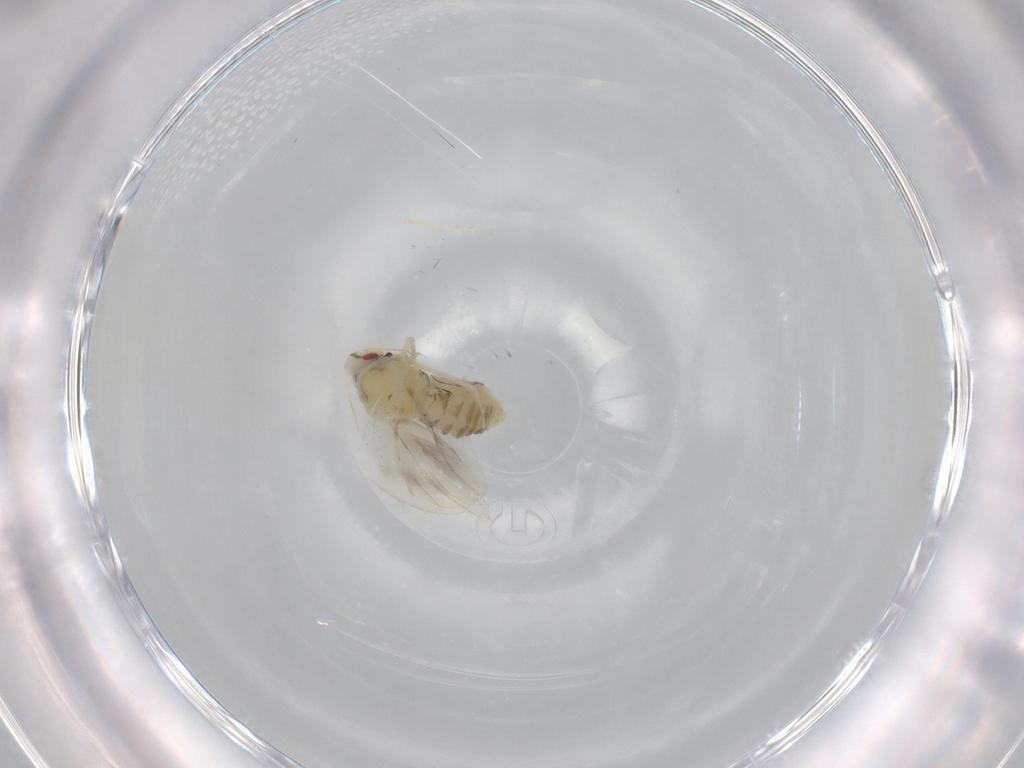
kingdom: Animalia
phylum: Arthropoda
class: Insecta
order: Hemiptera
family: Aleyrodidae
